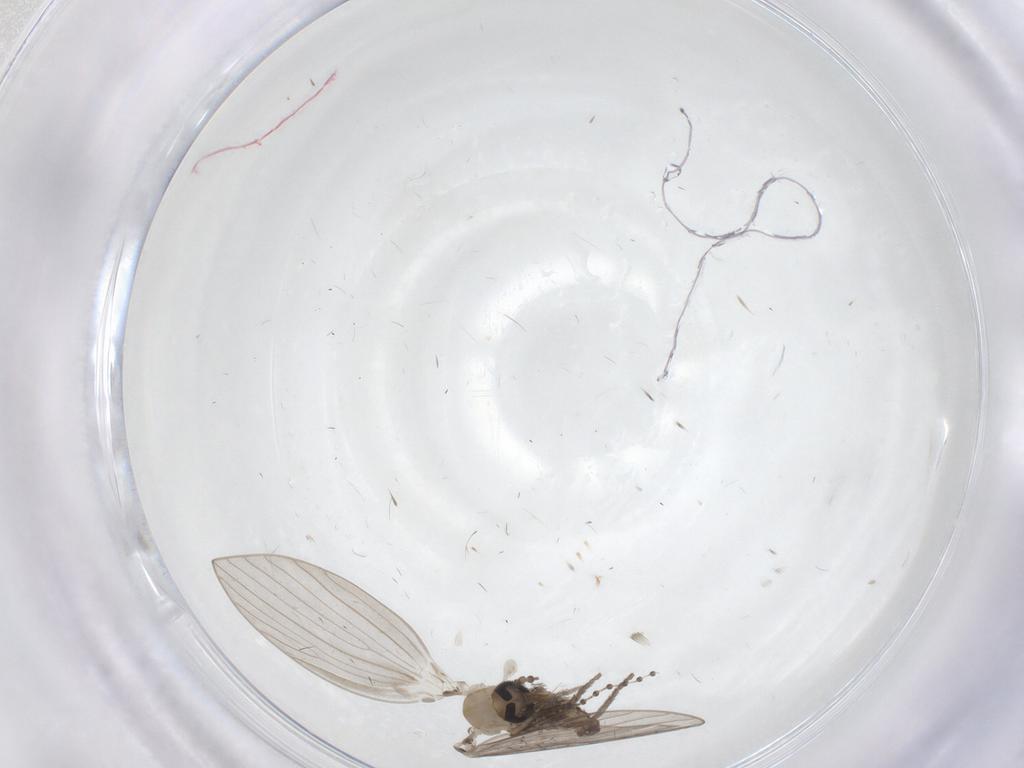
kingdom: Animalia
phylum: Arthropoda
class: Insecta
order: Diptera
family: Psychodidae
